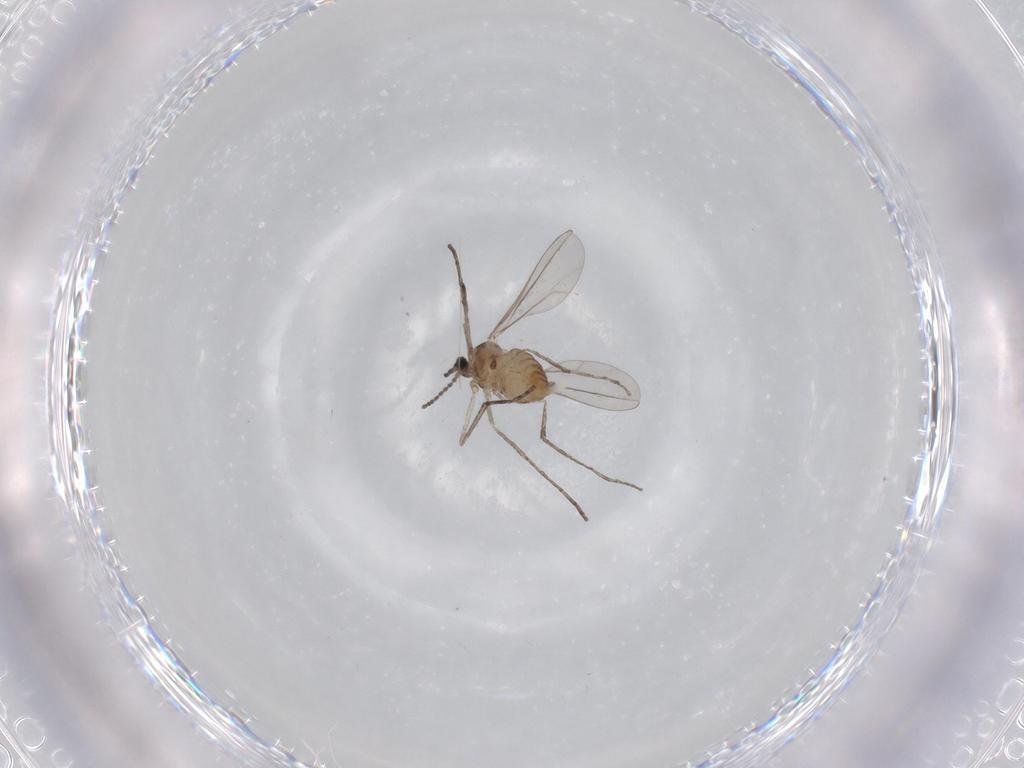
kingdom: Animalia
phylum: Arthropoda
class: Insecta
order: Diptera
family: Cecidomyiidae
